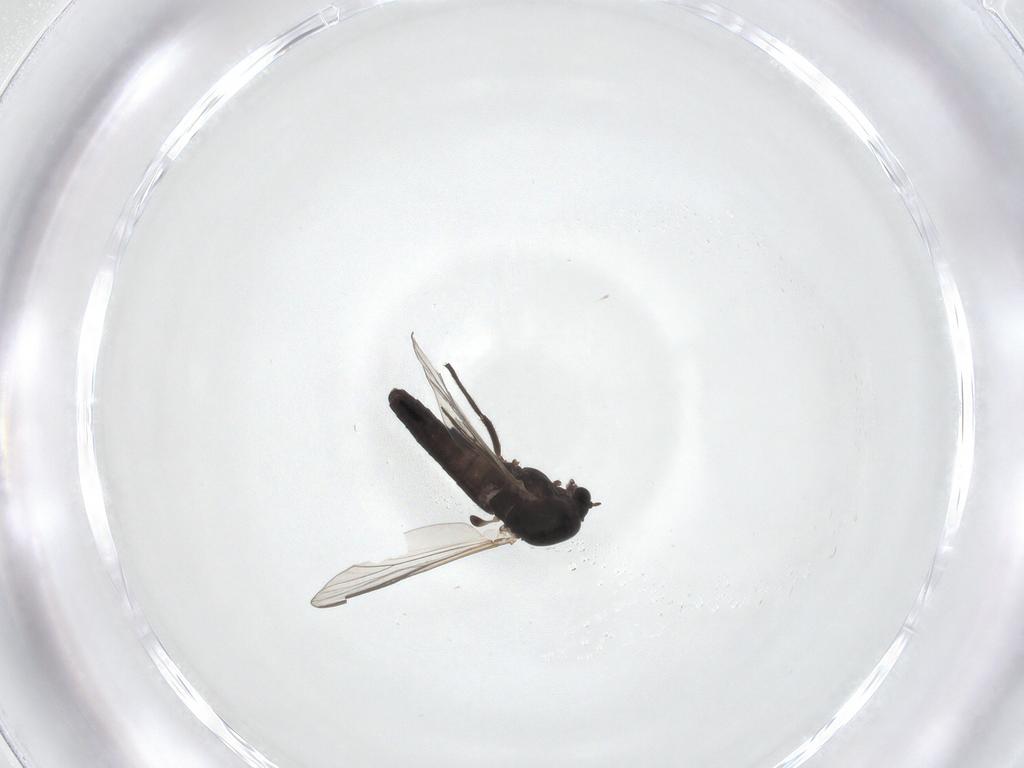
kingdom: Animalia
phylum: Arthropoda
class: Insecta
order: Diptera
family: Chironomidae
